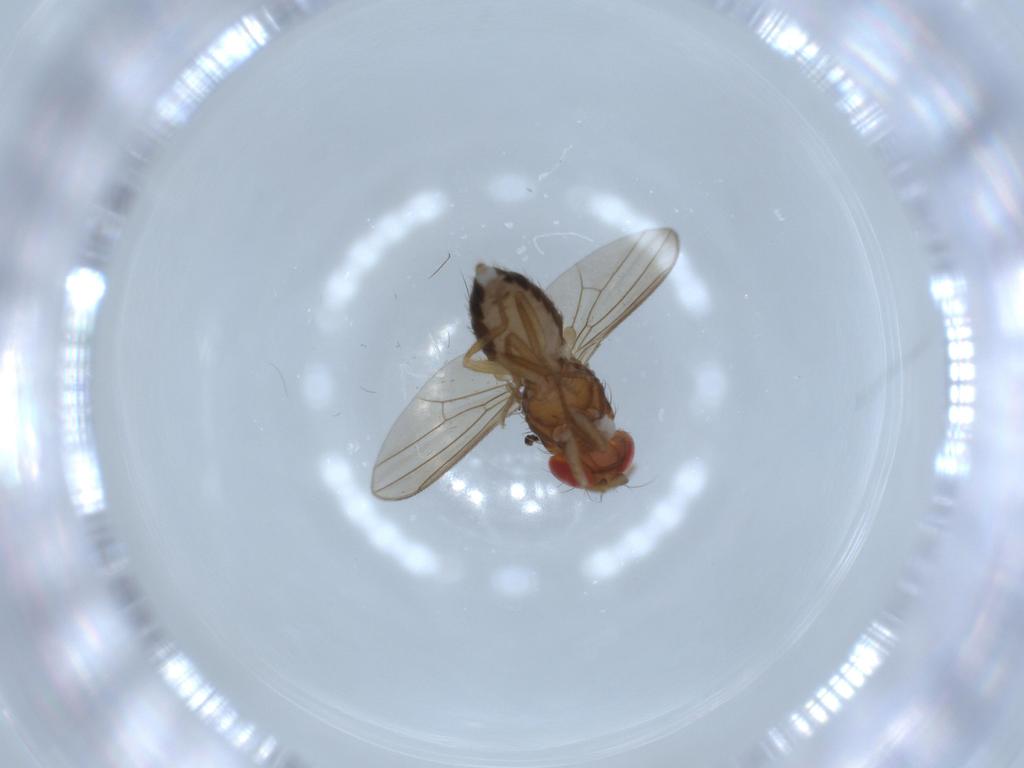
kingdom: Animalia
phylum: Arthropoda
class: Insecta
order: Diptera
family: Drosophilidae
